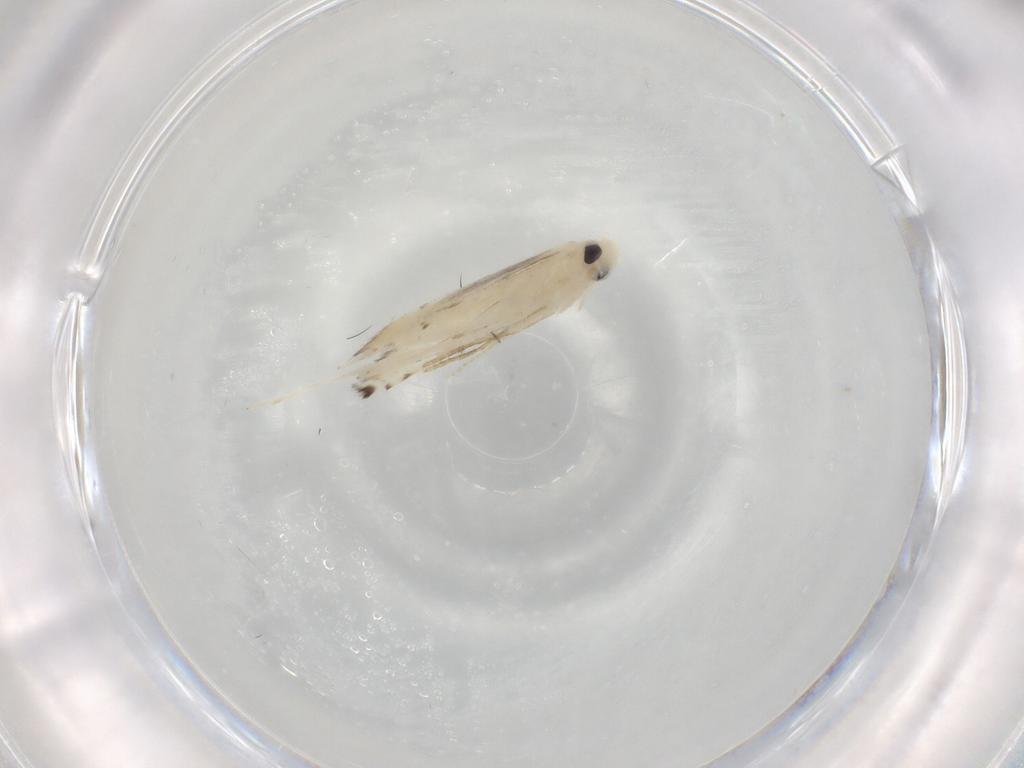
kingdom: Animalia
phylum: Arthropoda
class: Insecta
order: Lepidoptera
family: Gracillariidae
